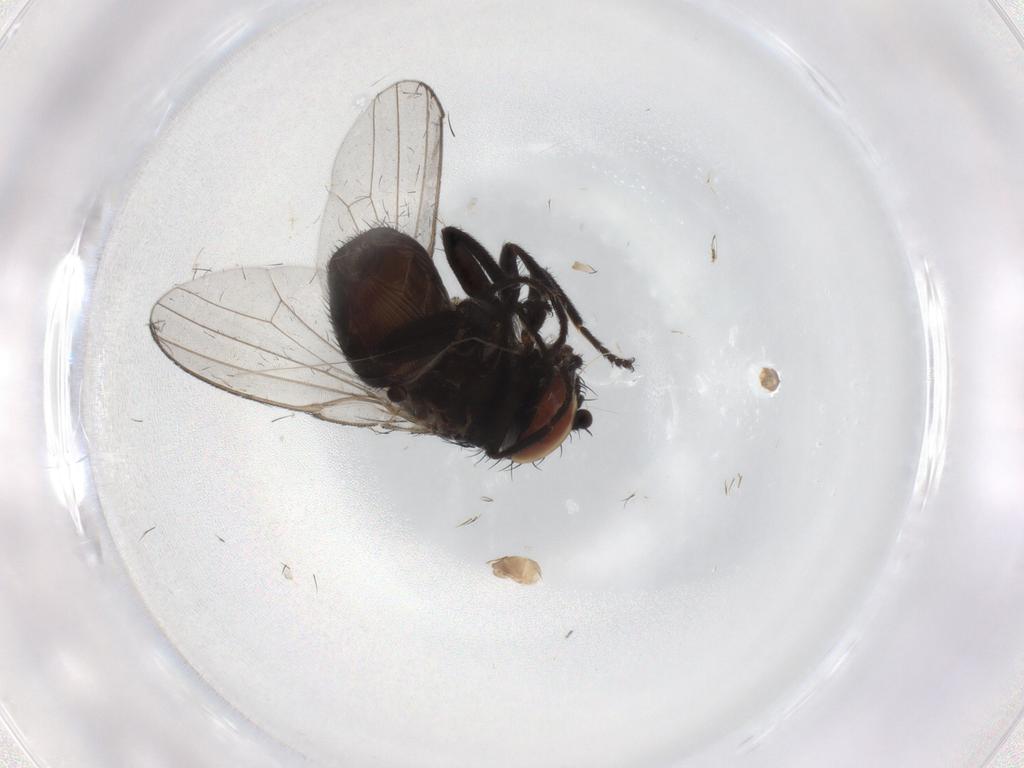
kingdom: Animalia
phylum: Arthropoda
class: Insecta
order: Diptera
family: Milichiidae
